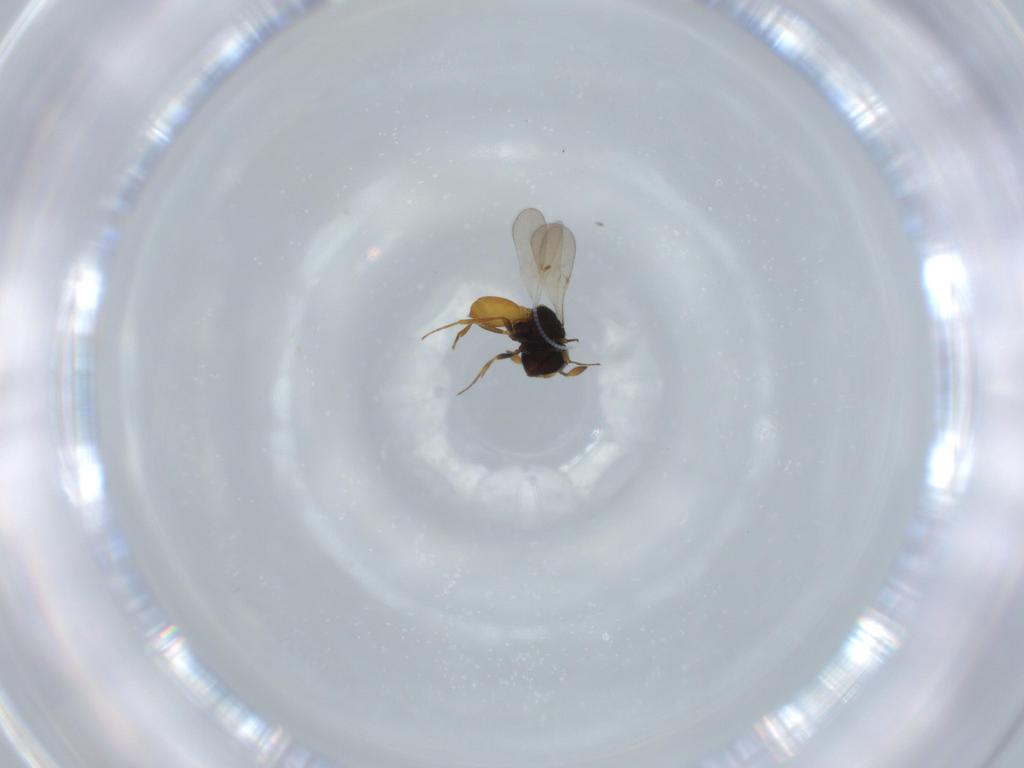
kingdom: Animalia
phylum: Arthropoda
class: Insecta
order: Hymenoptera
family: Scelionidae
